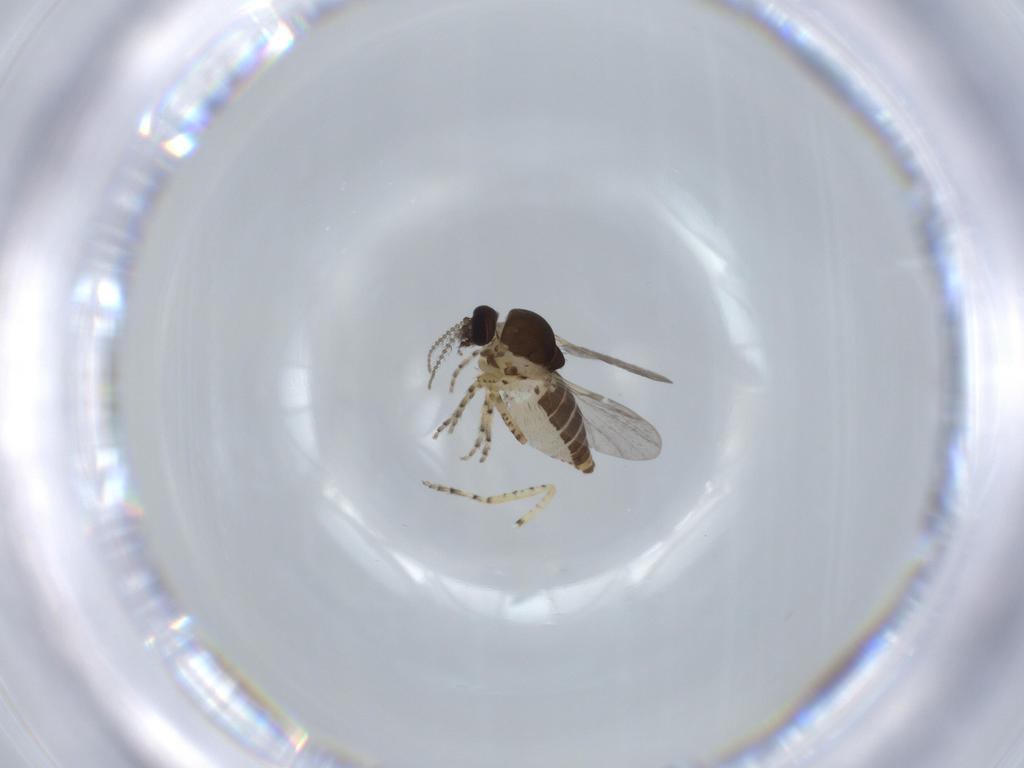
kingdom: Animalia
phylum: Arthropoda
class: Insecta
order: Diptera
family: Ceratopogonidae
